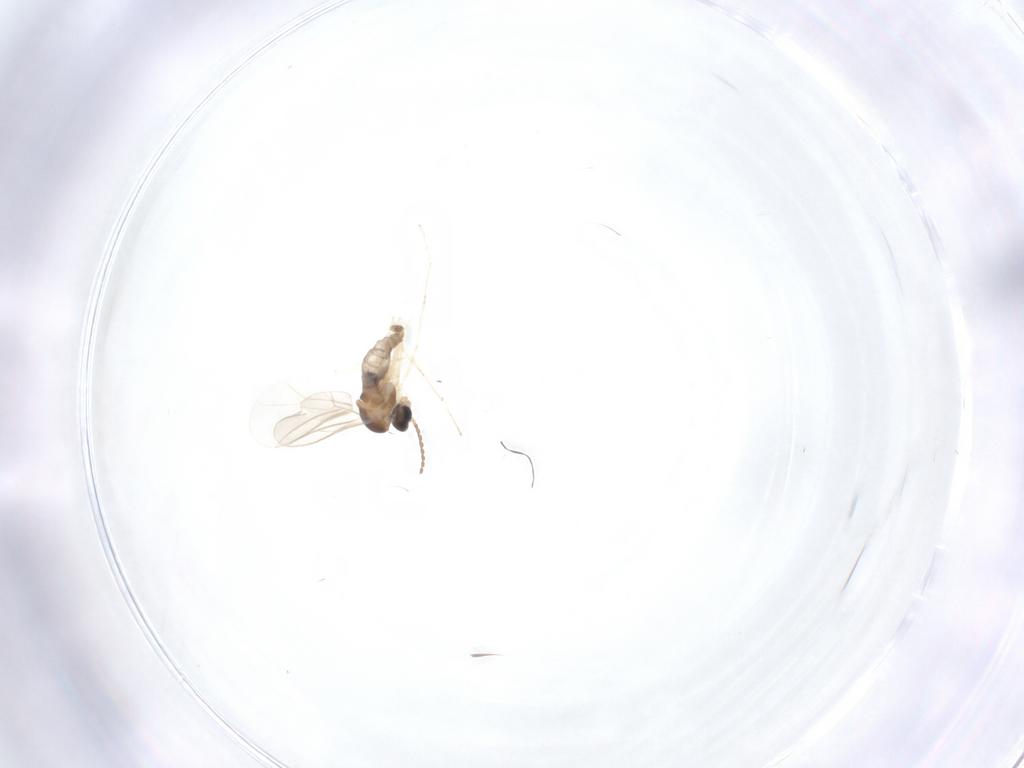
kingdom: Animalia
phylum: Arthropoda
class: Insecta
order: Diptera
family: Cecidomyiidae
